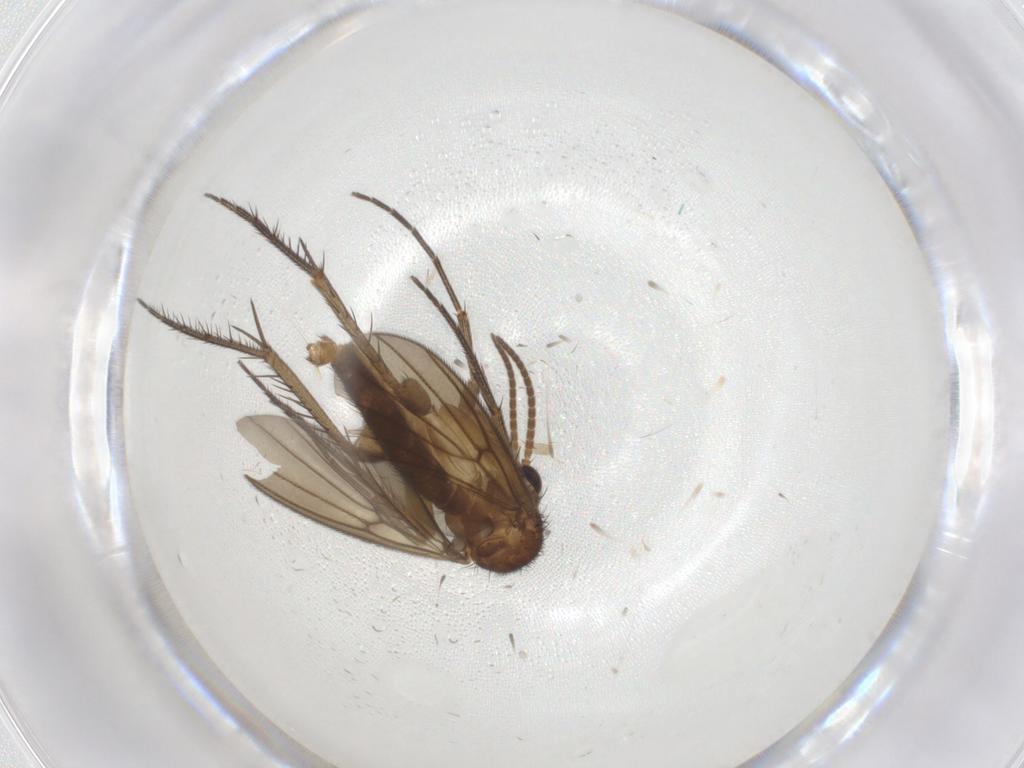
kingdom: Animalia
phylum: Arthropoda
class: Insecta
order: Diptera
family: Mycetophilidae
